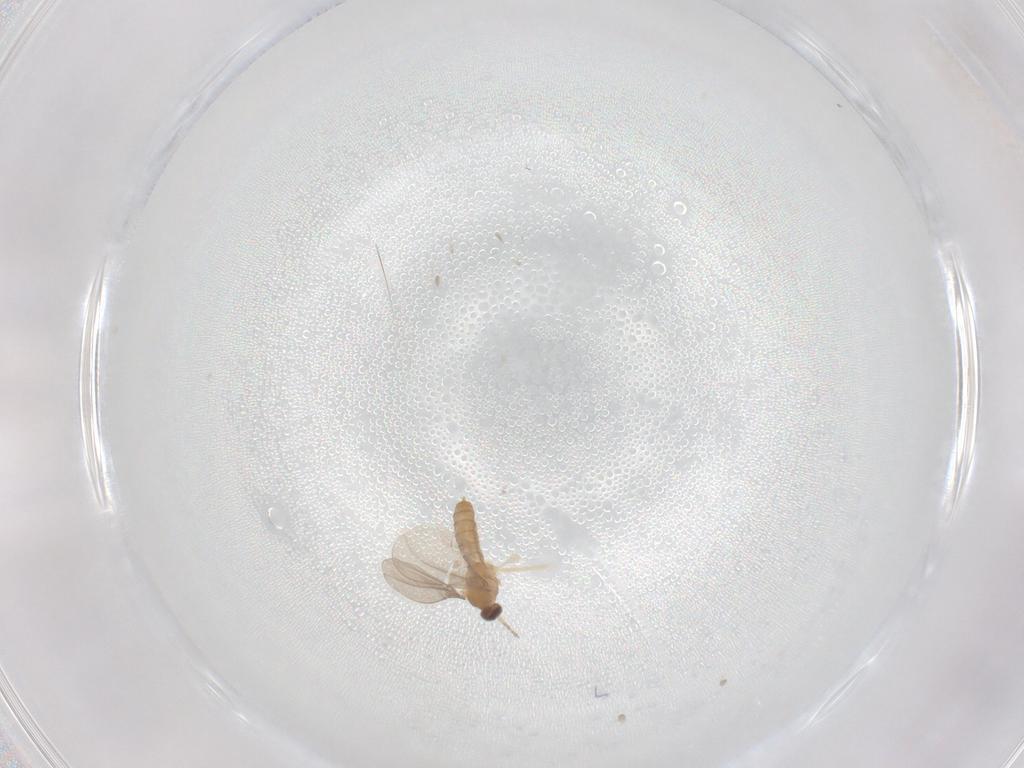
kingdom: Animalia
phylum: Arthropoda
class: Insecta
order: Diptera
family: Cecidomyiidae
